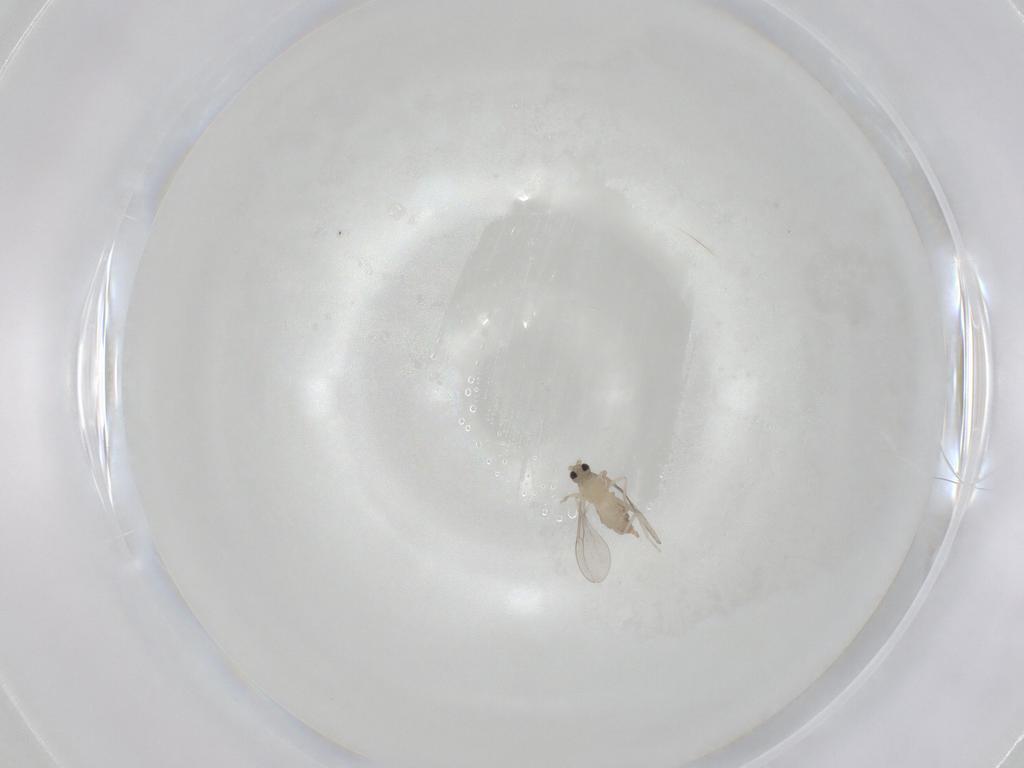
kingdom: Animalia
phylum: Arthropoda
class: Insecta
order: Diptera
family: Cecidomyiidae
